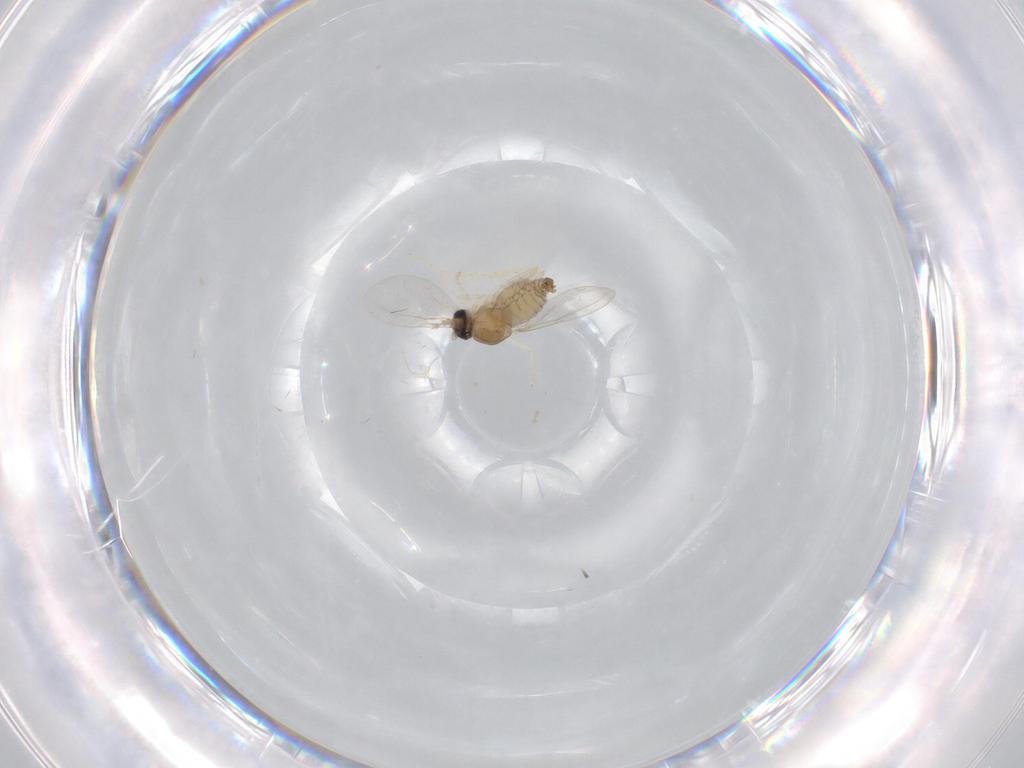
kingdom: Animalia
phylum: Arthropoda
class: Insecta
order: Diptera
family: Cecidomyiidae
